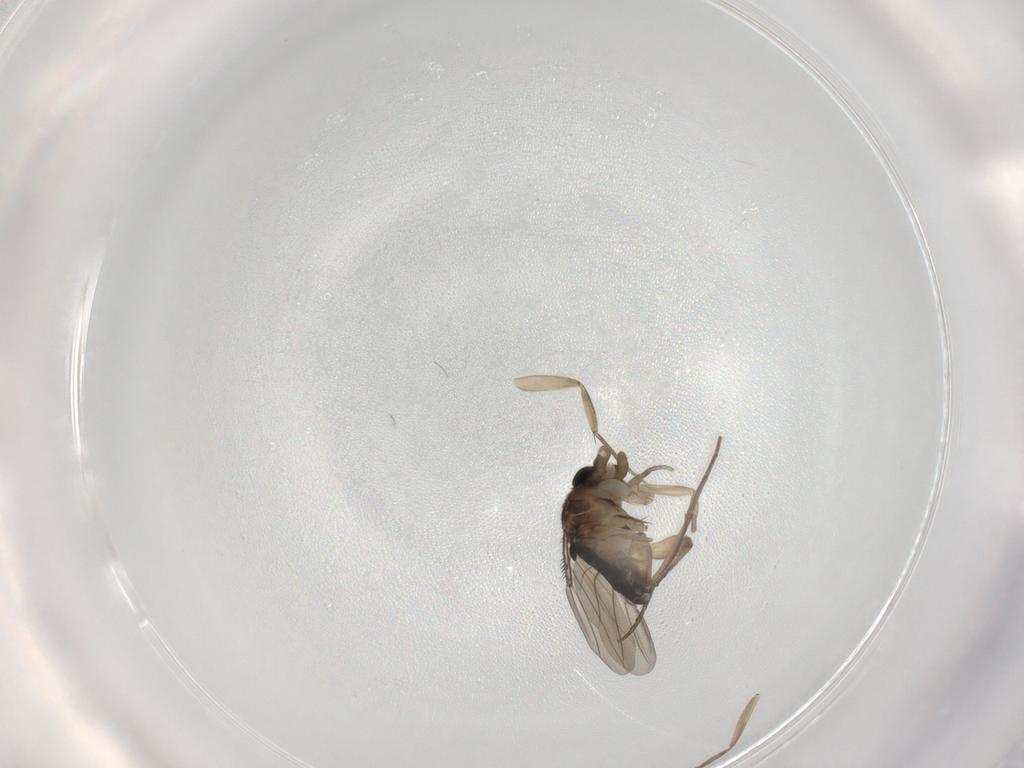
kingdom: Animalia
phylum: Arthropoda
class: Insecta
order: Diptera
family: Phoridae
